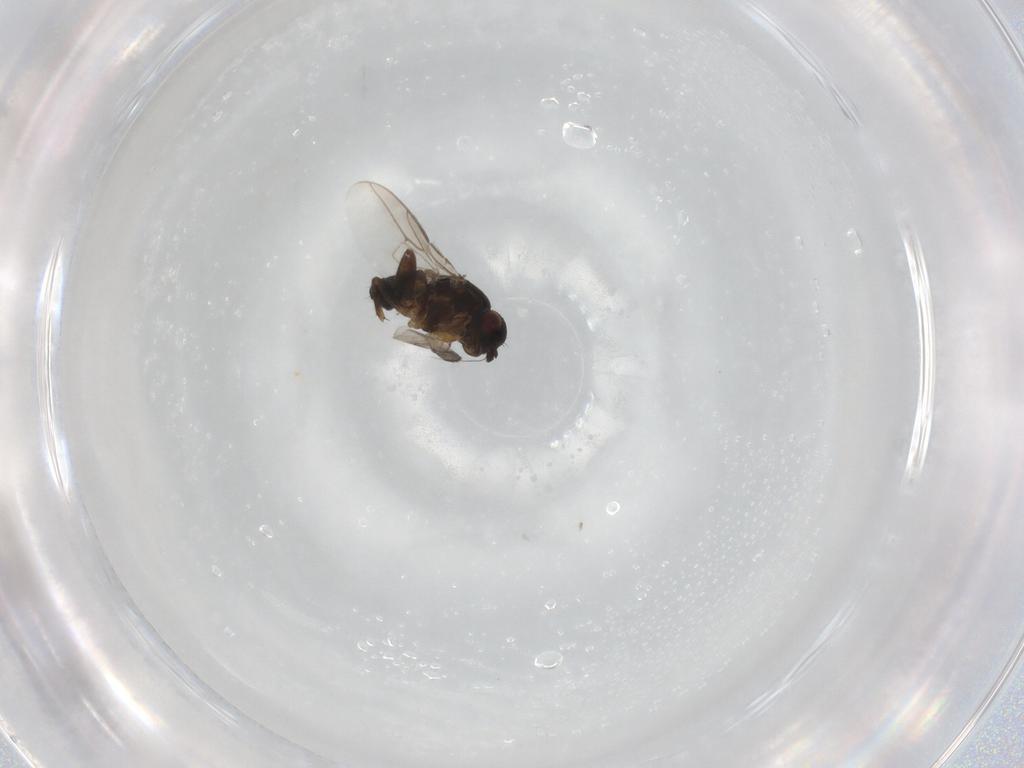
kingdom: Animalia
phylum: Arthropoda
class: Insecta
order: Diptera
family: Sphaeroceridae
